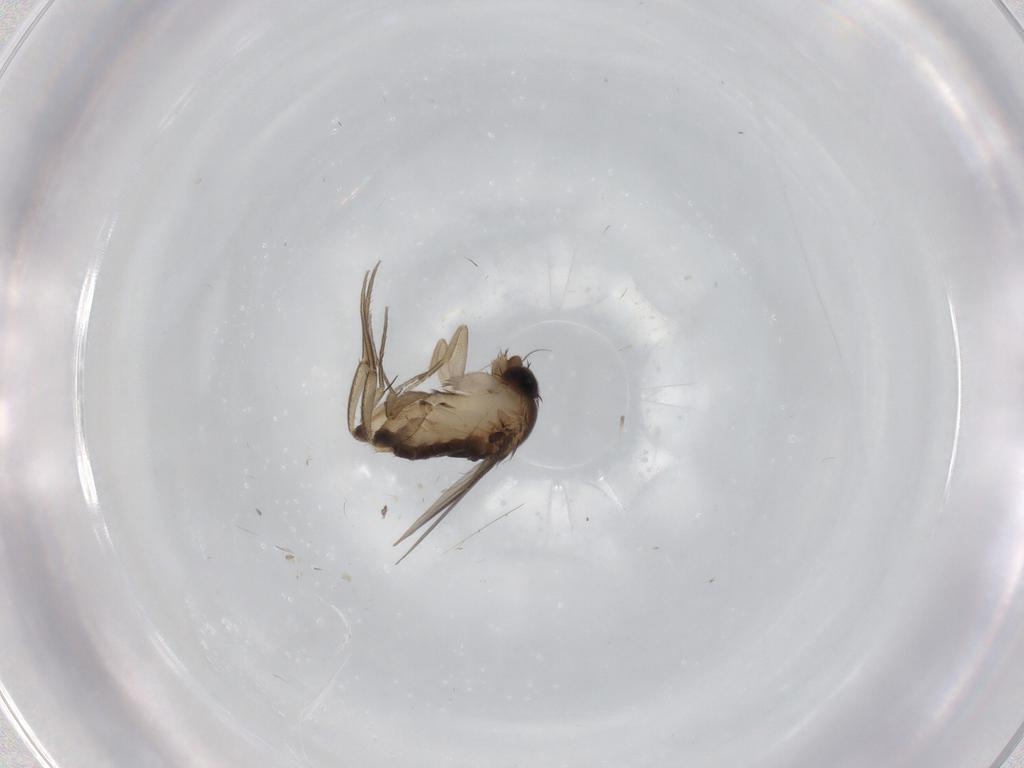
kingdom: Animalia
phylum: Arthropoda
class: Insecta
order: Diptera
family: Phoridae
